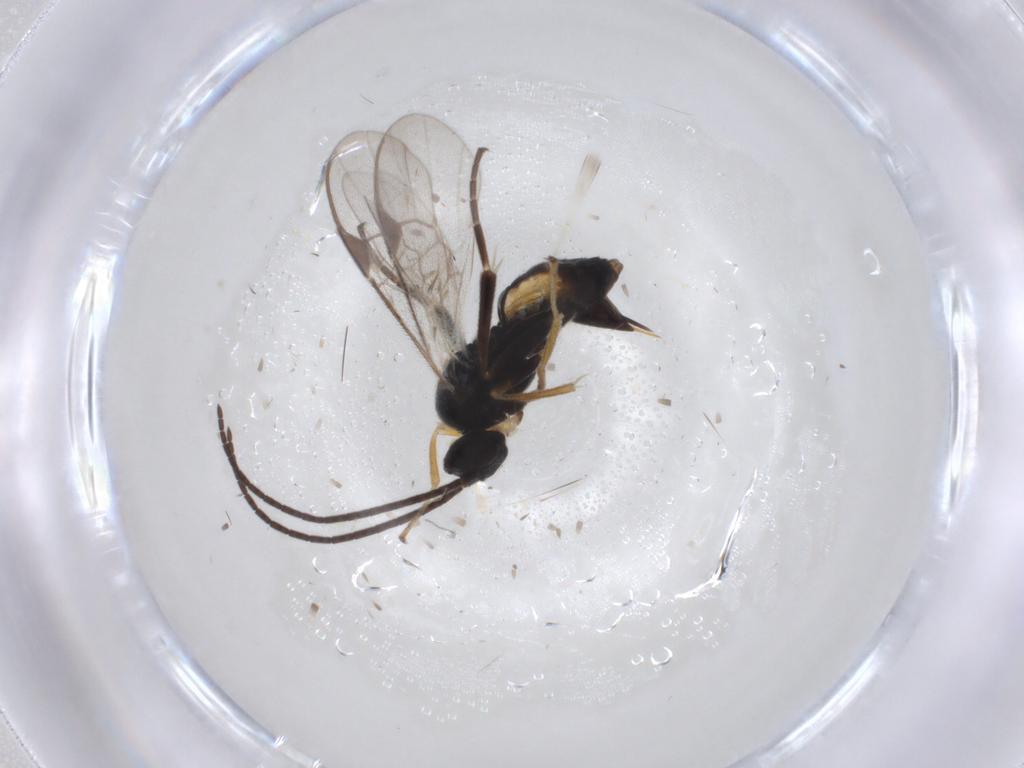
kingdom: Animalia
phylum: Arthropoda
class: Insecta
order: Hymenoptera
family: Braconidae
